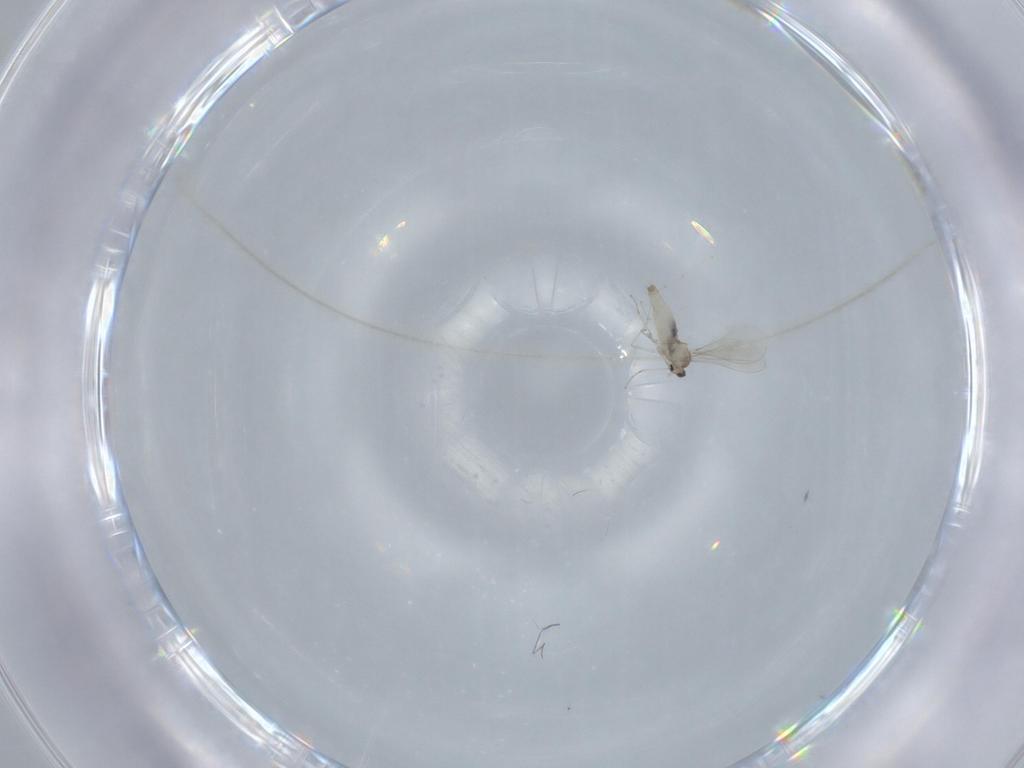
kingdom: Animalia
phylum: Arthropoda
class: Insecta
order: Diptera
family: Cecidomyiidae
